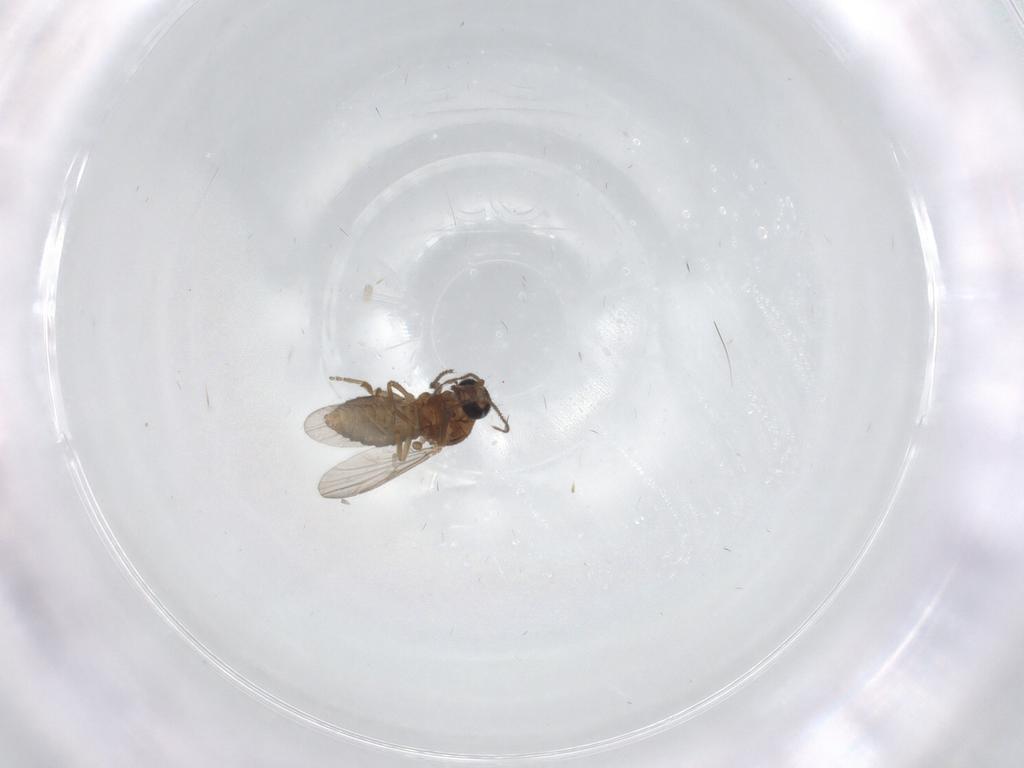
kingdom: Animalia
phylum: Arthropoda
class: Insecta
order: Diptera
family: Ceratopogonidae
